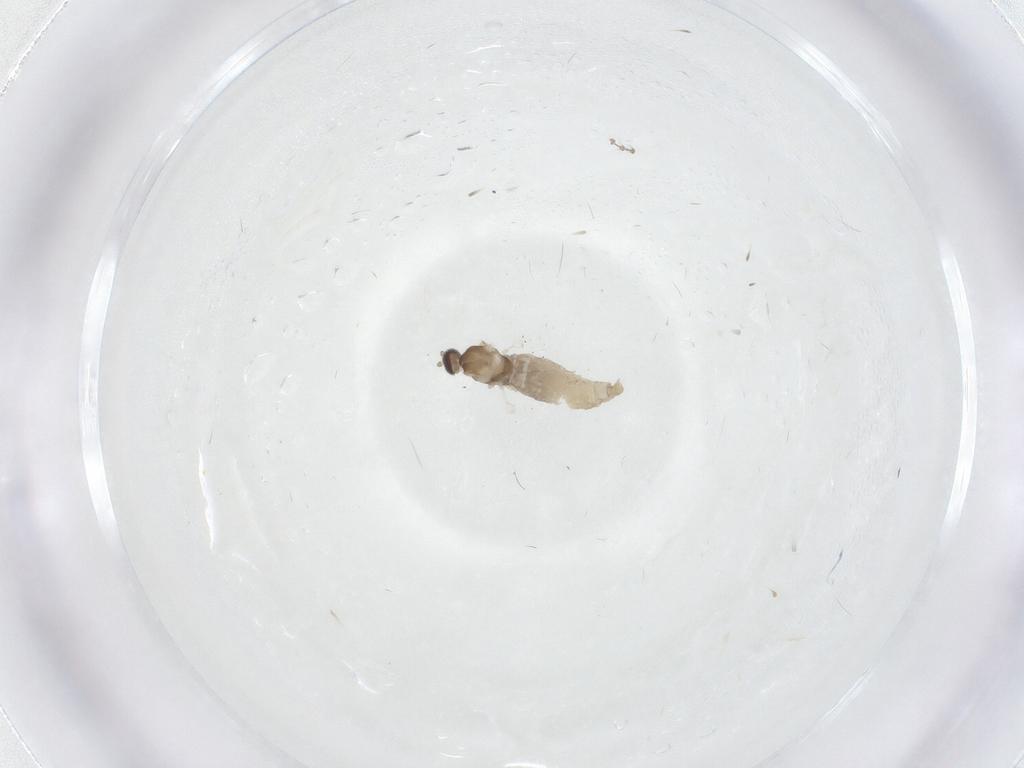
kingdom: Animalia
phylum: Arthropoda
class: Insecta
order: Diptera
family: Cecidomyiidae
